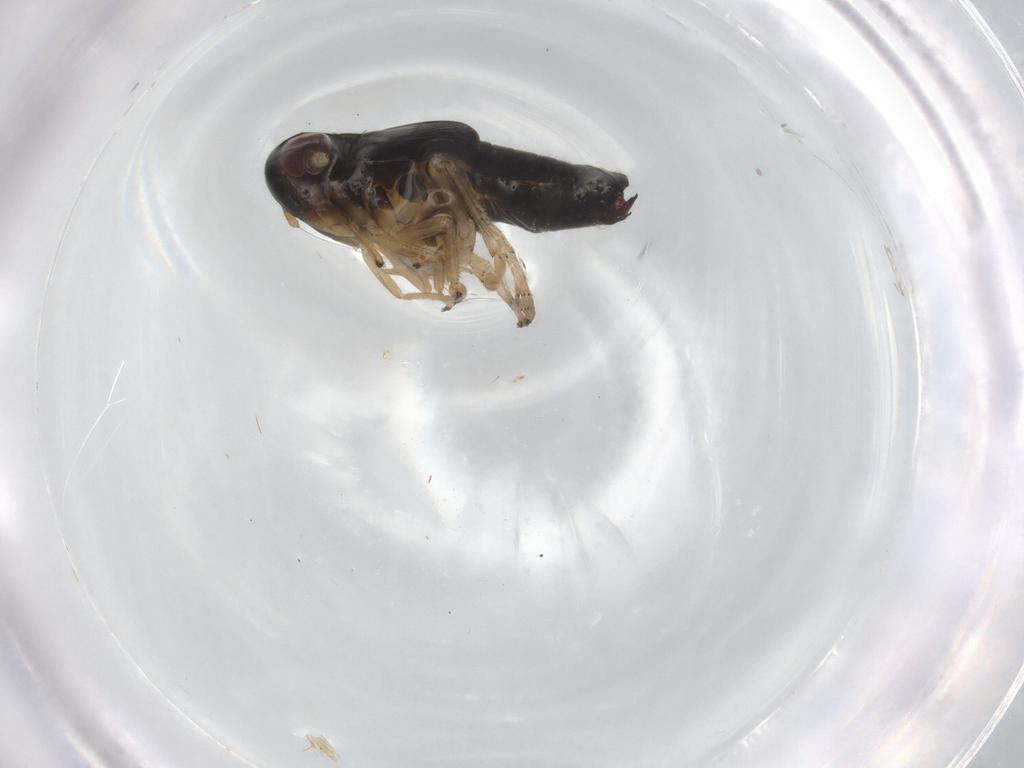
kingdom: Animalia
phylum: Arthropoda
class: Insecta
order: Hemiptera
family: Delphacidae
